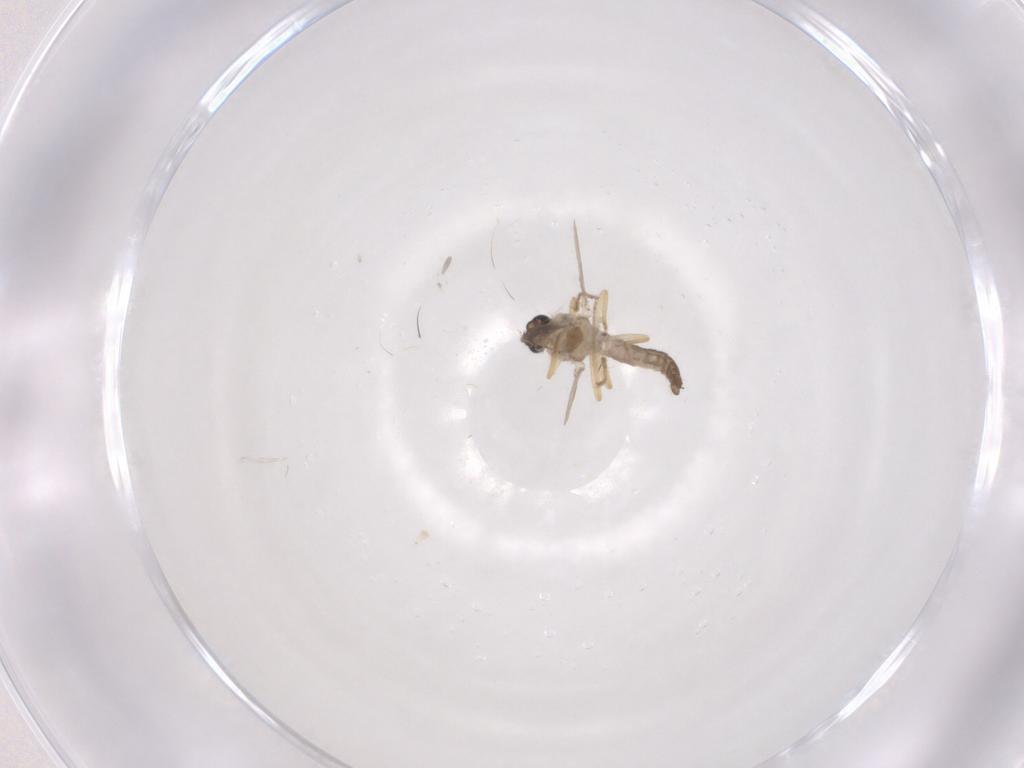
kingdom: Animalia
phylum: Arthropoda
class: Insecta
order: Diptera
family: Ceratopogonidae
